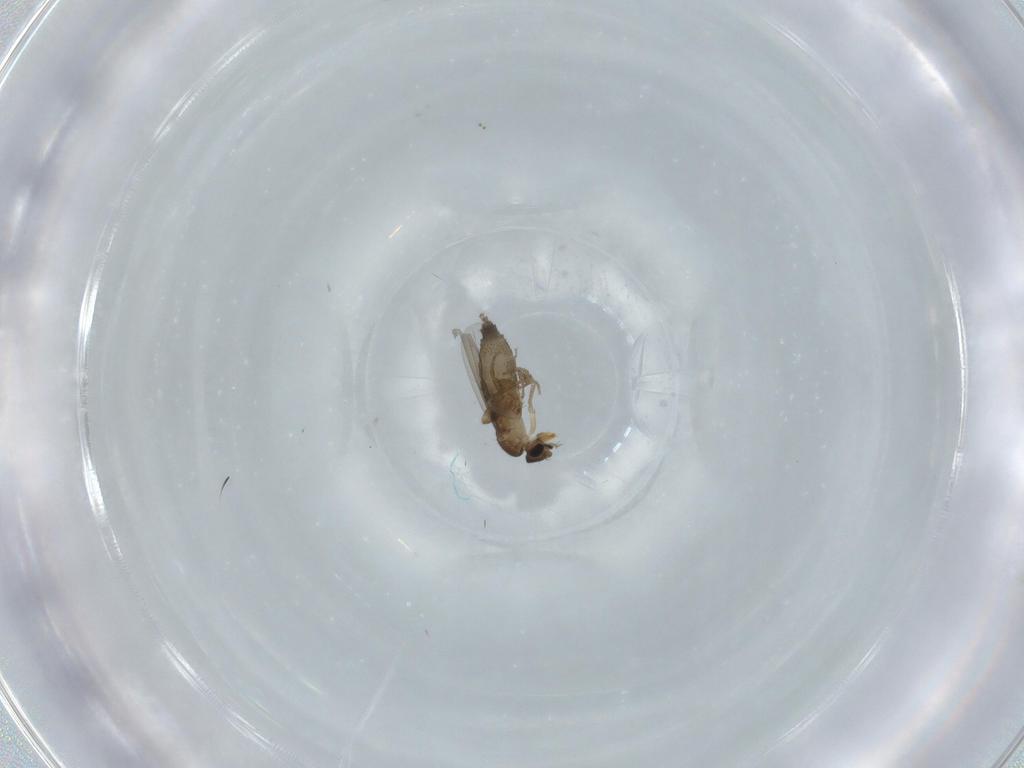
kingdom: Animalia
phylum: Arthropoda
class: Insecta
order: Diptera
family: Cecidomyiidae
